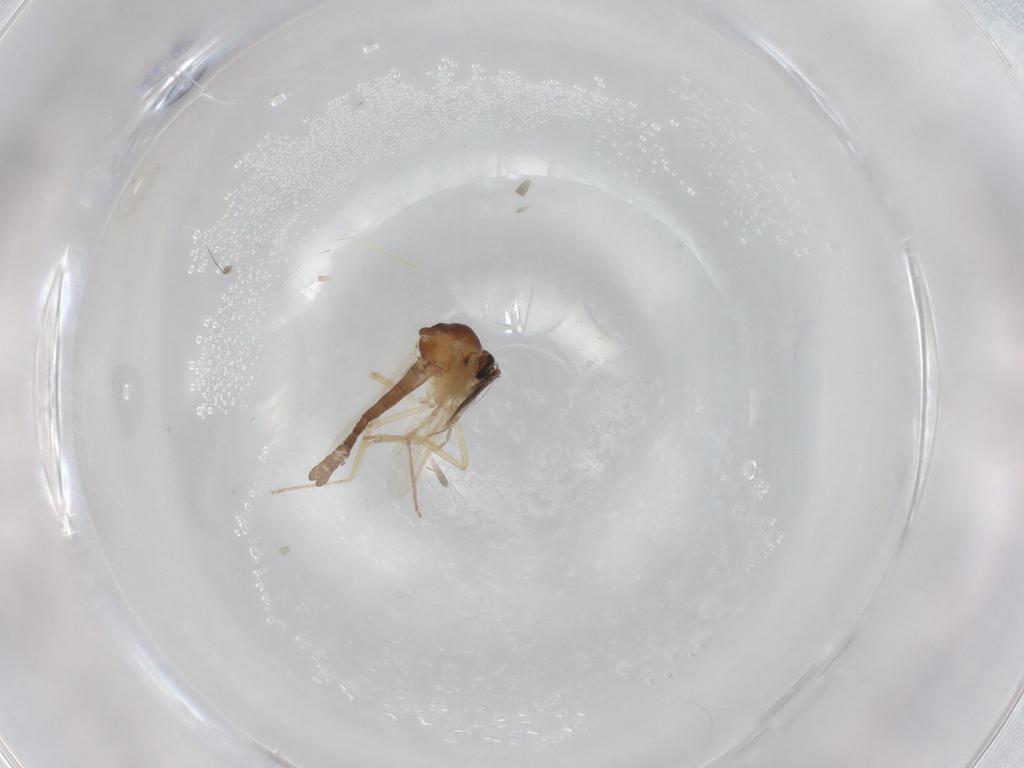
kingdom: Animalia
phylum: Arthropoda
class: Insecta
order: Diptera
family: Ceratopogonidae
